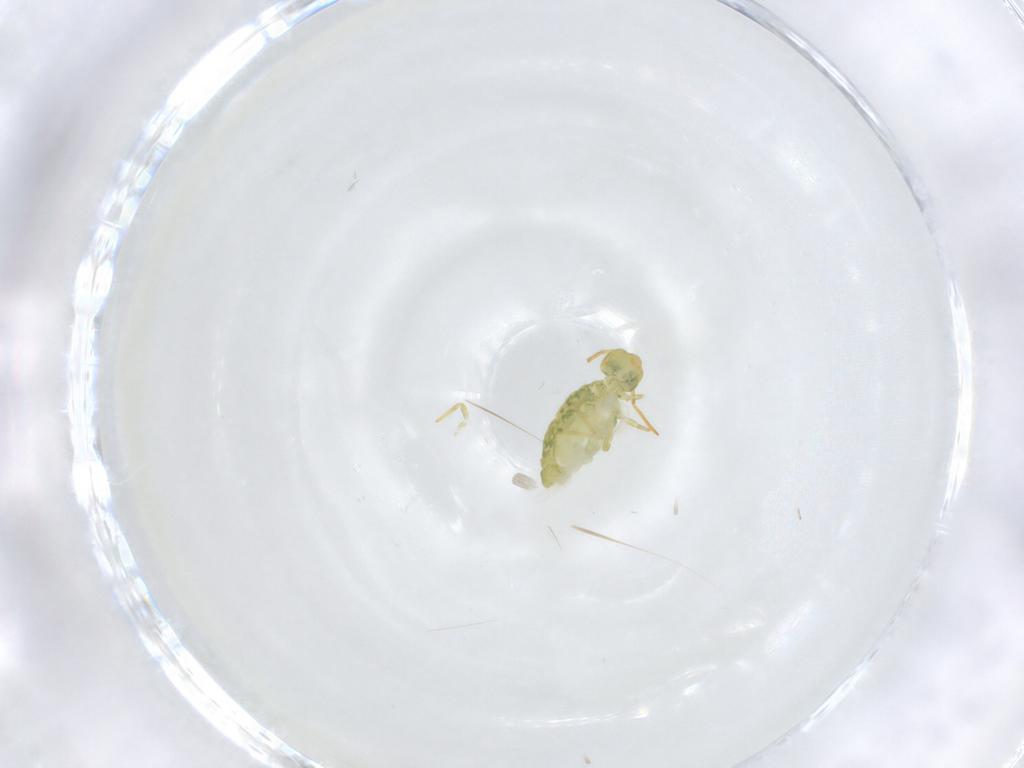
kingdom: Animalia
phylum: Arthropoda
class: Collembola
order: Symphypleona
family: Katiannidae
